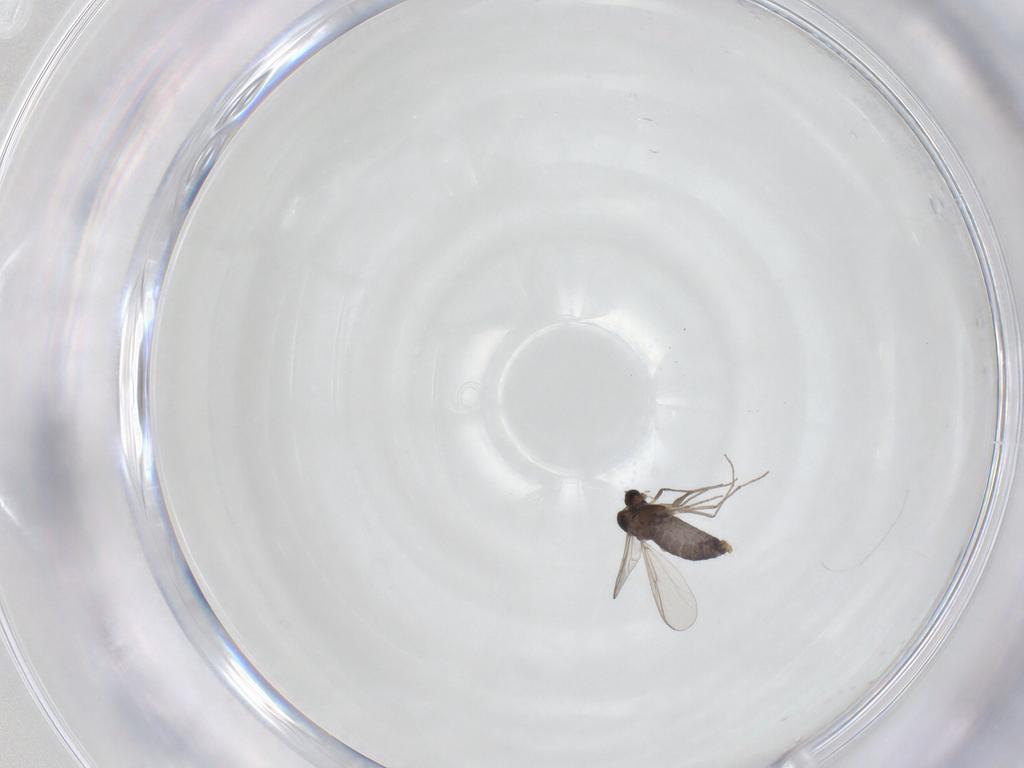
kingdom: Animalia
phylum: Arthropoda
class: Insecta
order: Diptera
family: Chironomidae
